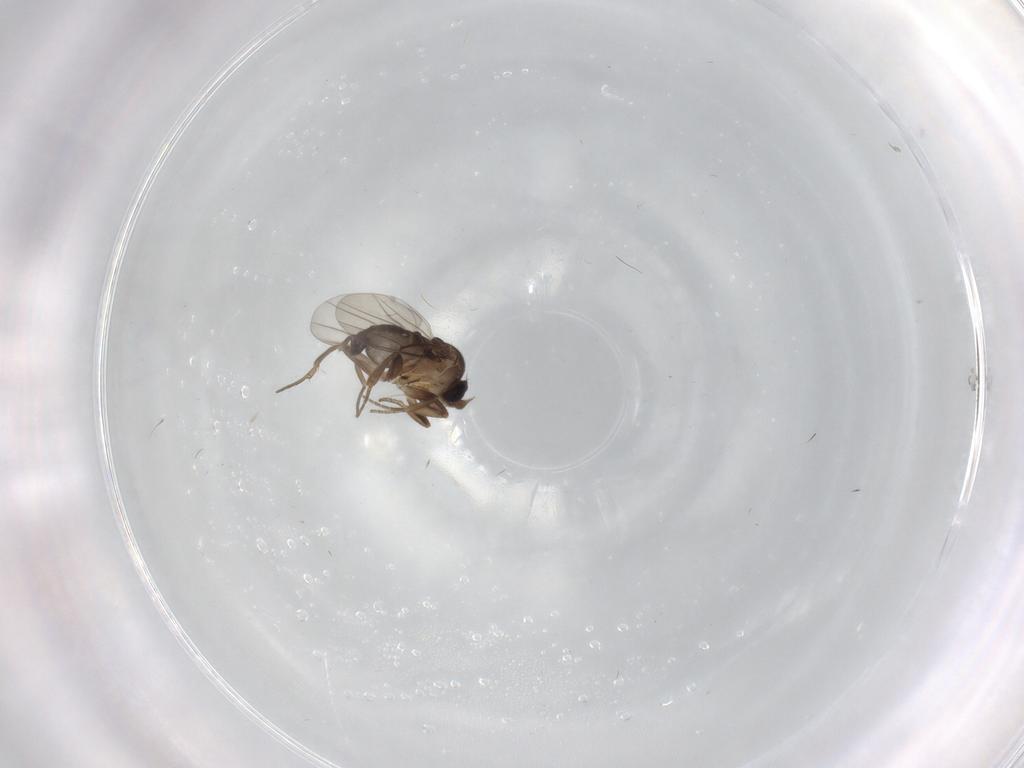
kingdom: Animalia
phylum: Arthropoda
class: Insecta
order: Diptera
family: Phoridae
